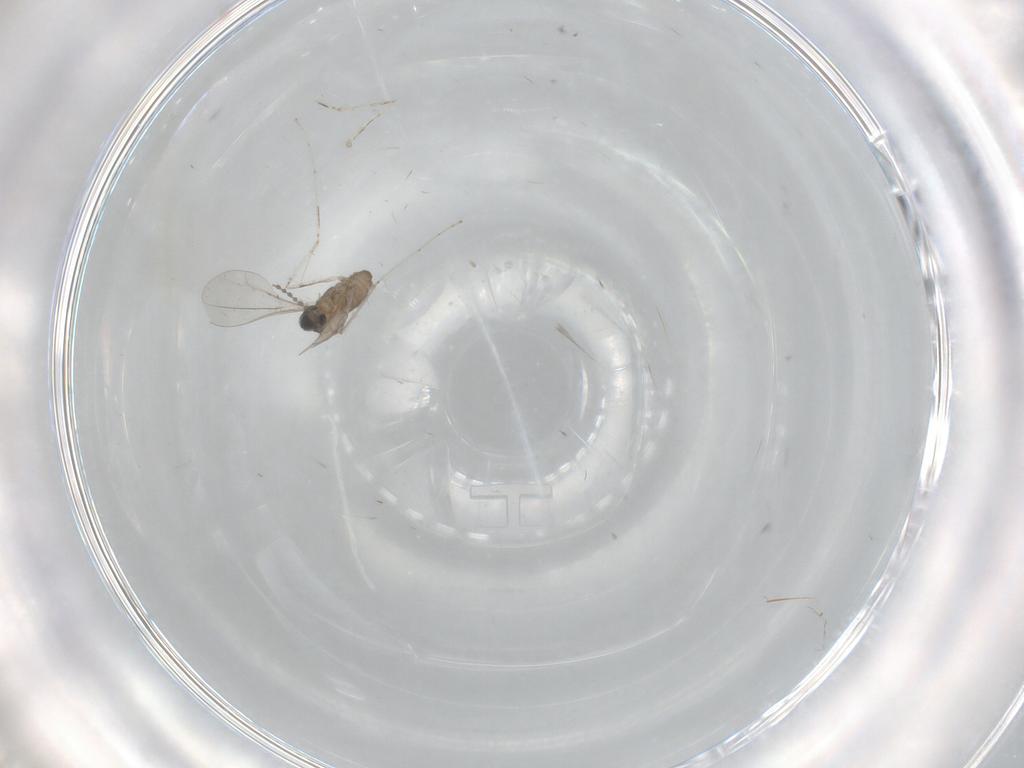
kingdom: Animalia
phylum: Arthropoda
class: Insecta
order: Diptera
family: Cecidomyiidae
